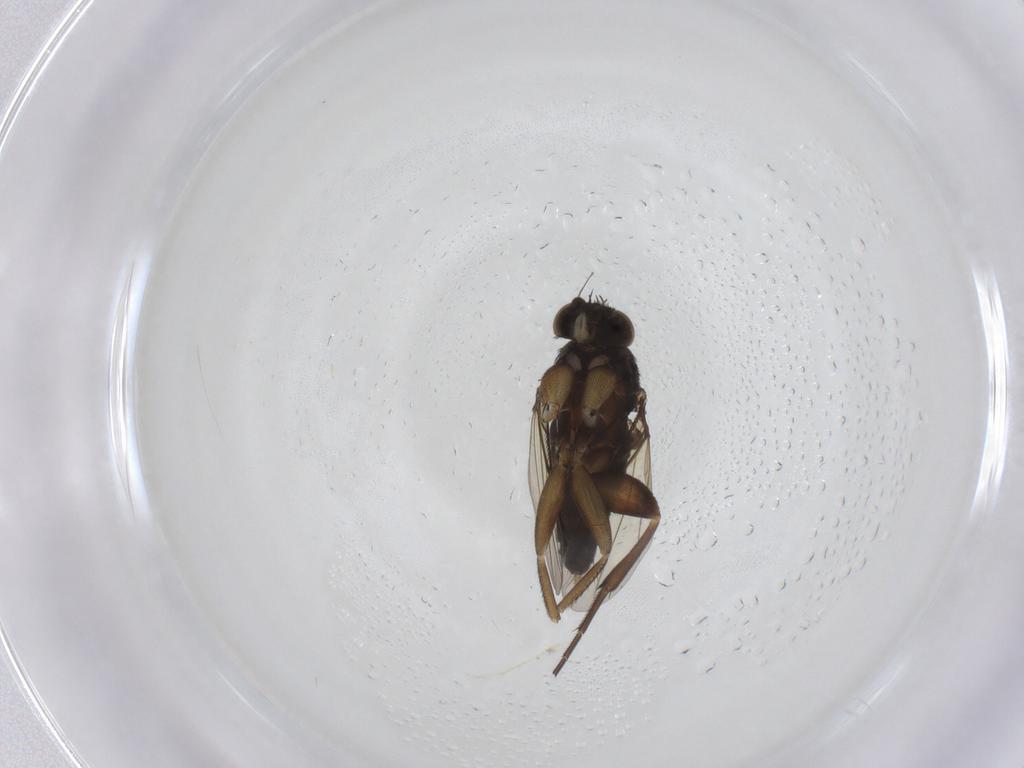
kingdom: Animalia
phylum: Arthropoda
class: Insecta
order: Diptera
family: Phoridae
